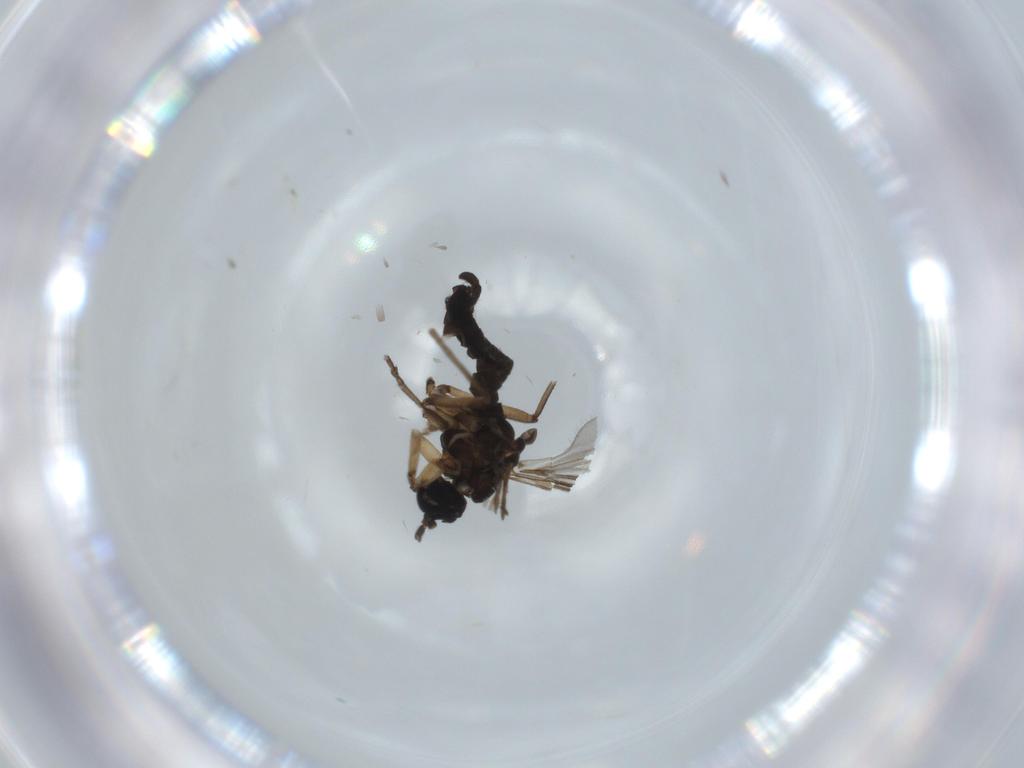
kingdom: Animalia
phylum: Arthropoda
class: Insecta
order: Diptera
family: Sciaridae
